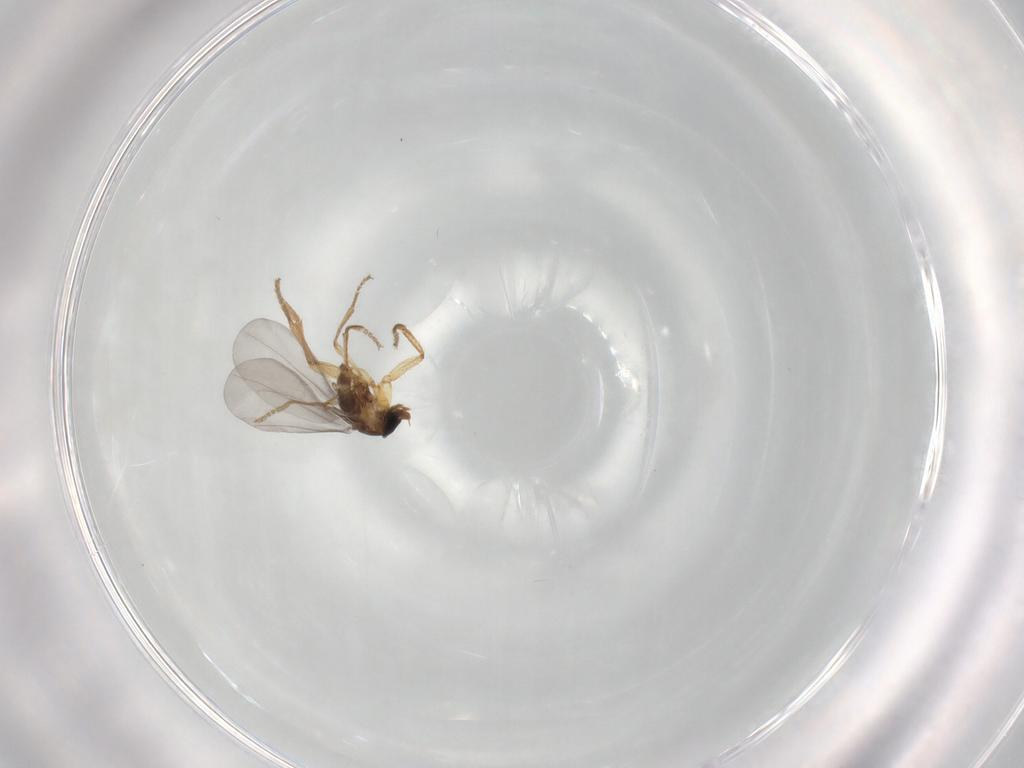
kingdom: Animalia
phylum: Arthropoda
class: Insecta
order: Diptera
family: Phoridae
